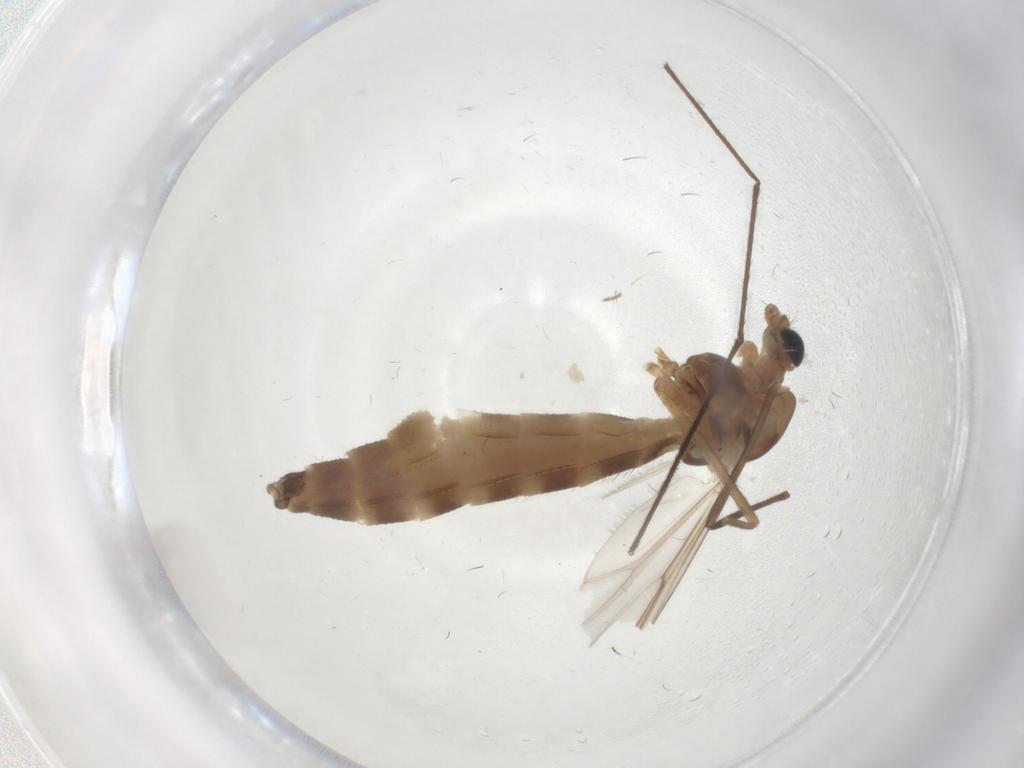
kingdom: Animalia
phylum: Arthropoda
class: Insecta
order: Diptera
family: Chironomidae
